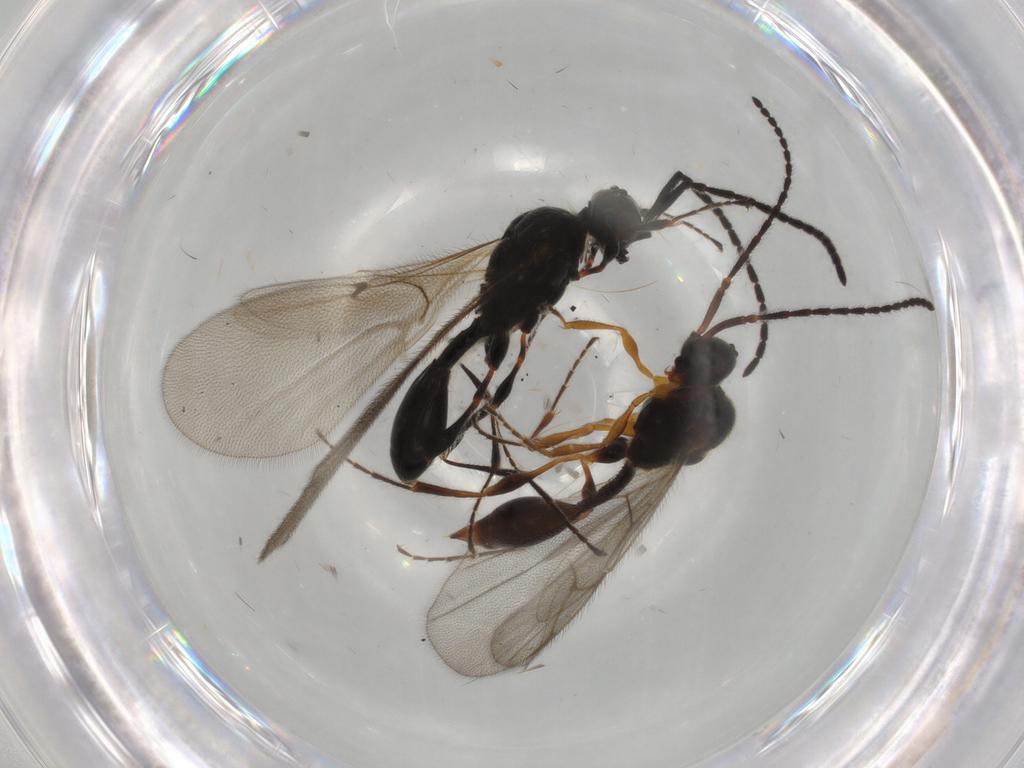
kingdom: Animalia
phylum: Arthropoda
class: Insecta
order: Hymenoptera
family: Diapriidae
